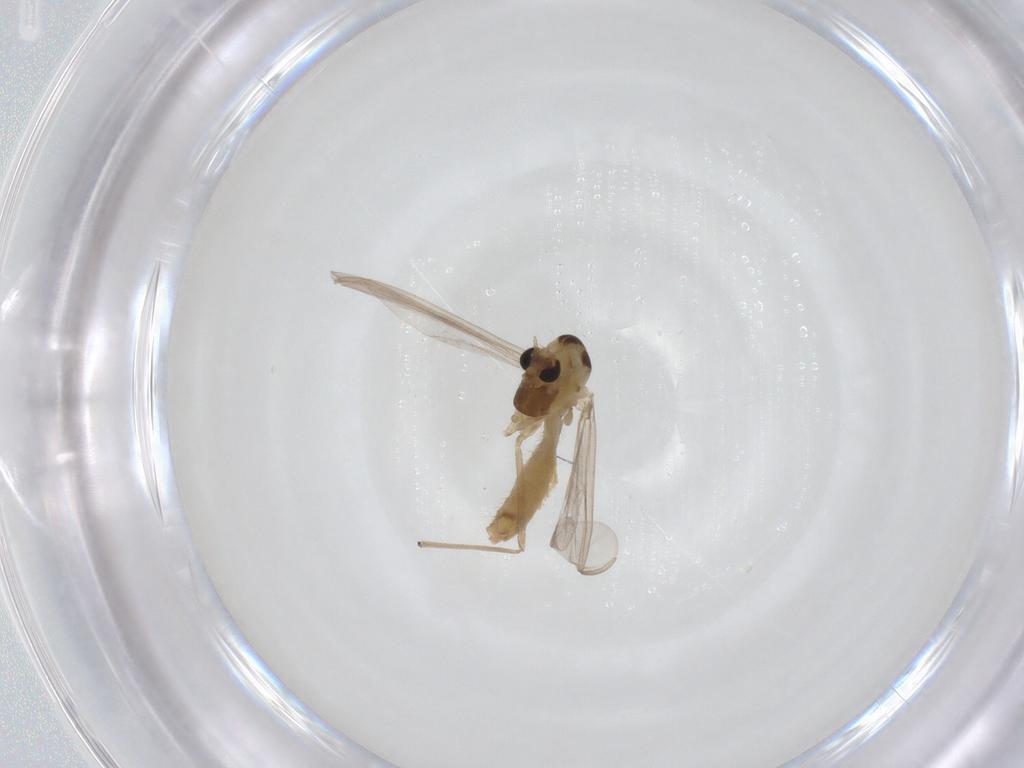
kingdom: Animalia
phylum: Arthropoda
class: Insecta
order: Diptera
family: Chironomidae
